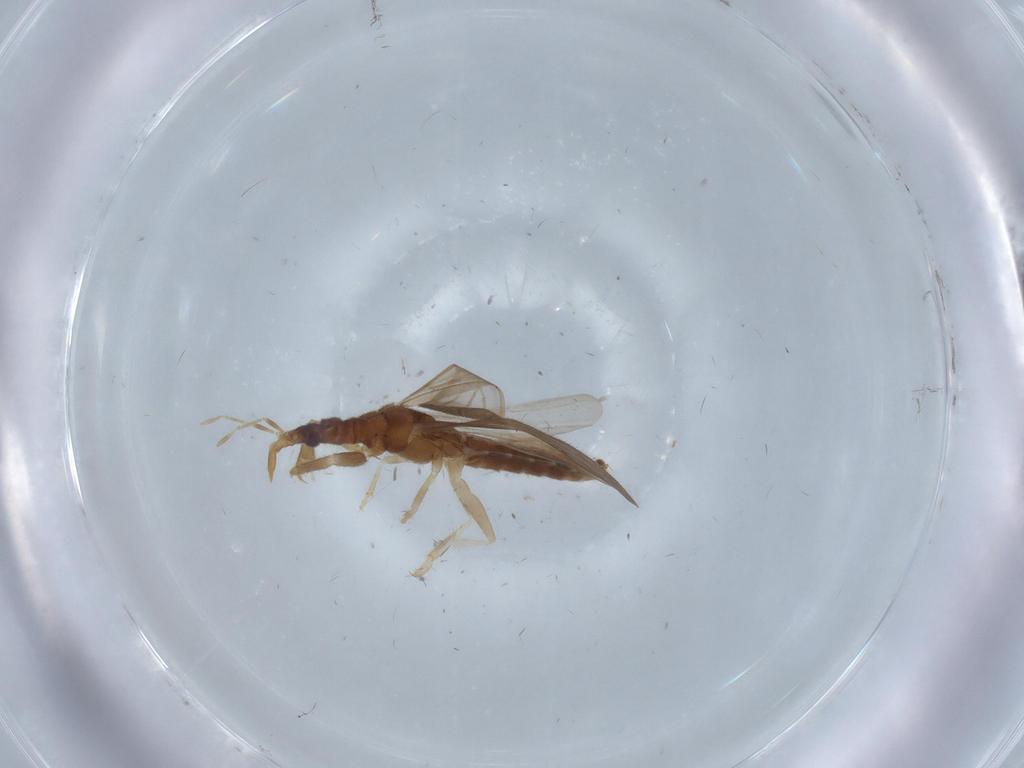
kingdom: Animalia
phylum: Arthropoda
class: Insecta
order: Hemiptera
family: Enicocephalidae
